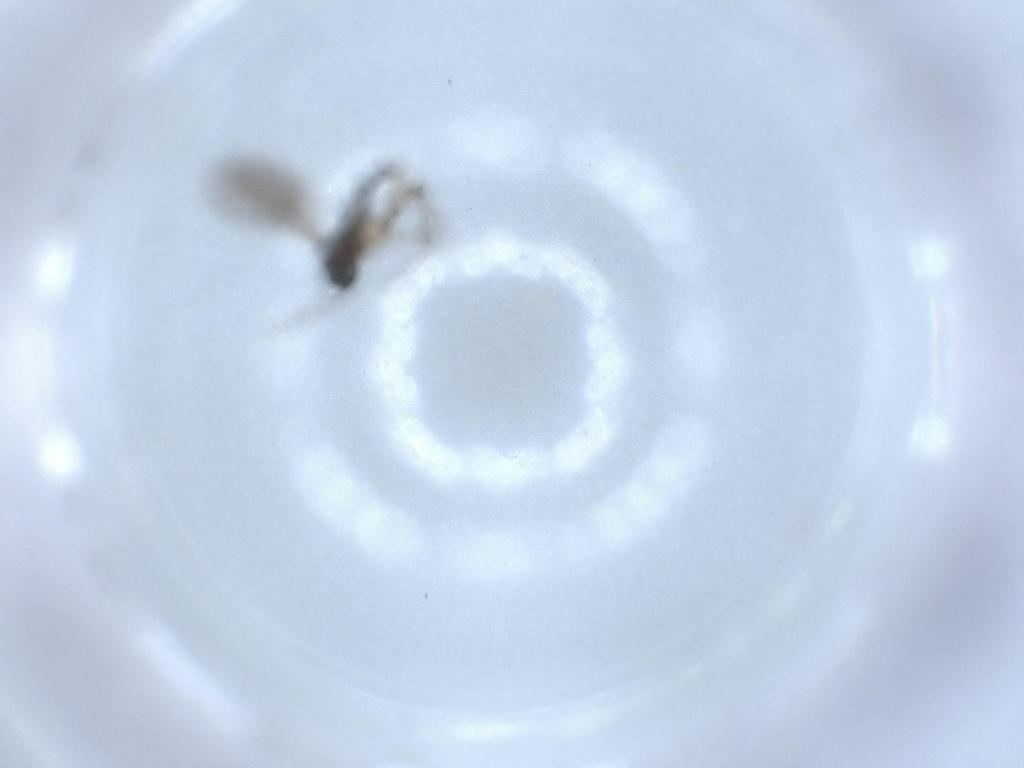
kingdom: Animalia
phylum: Arthropoda
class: Insecta
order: Diptera
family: Sciaridae
